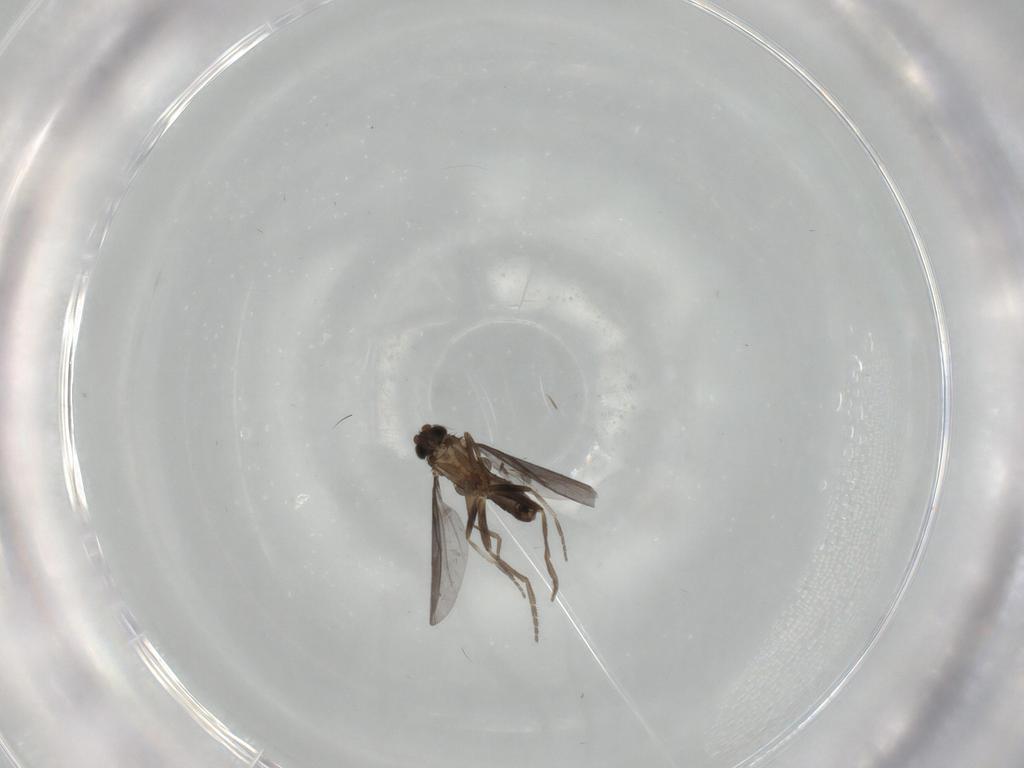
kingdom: Animalia
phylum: Arthropoda
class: Insecta
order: Diptera
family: Phoridae
